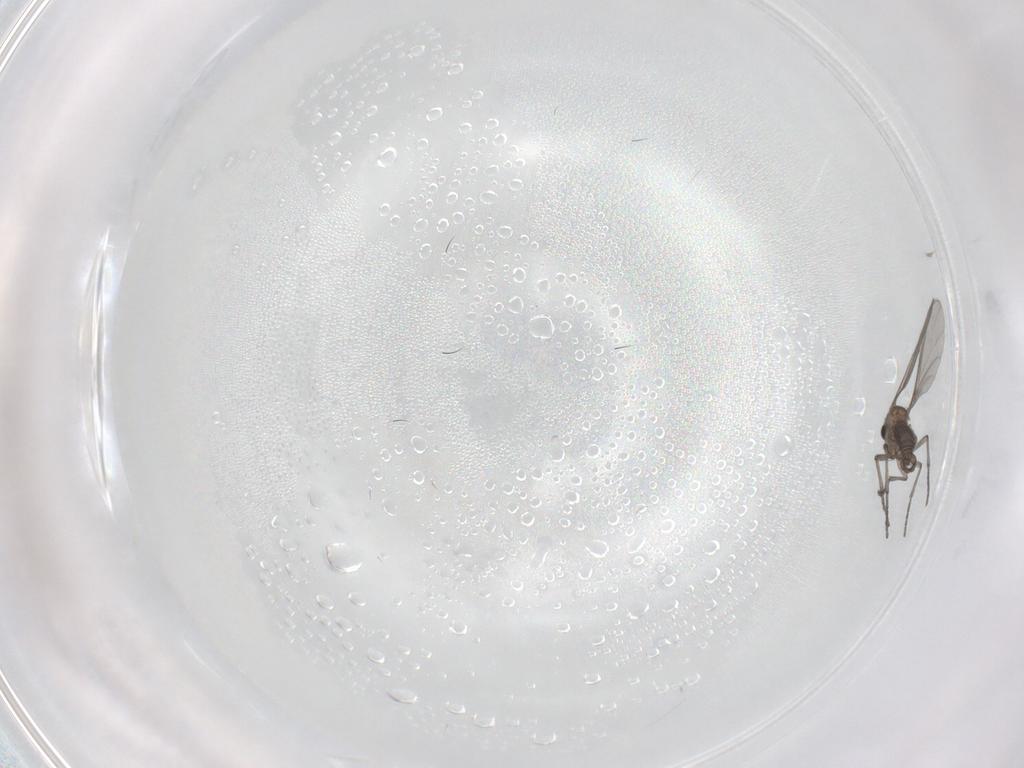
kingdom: Animalia
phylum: Arthropoda
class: Insecta
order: Diptera
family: Sciaridae
